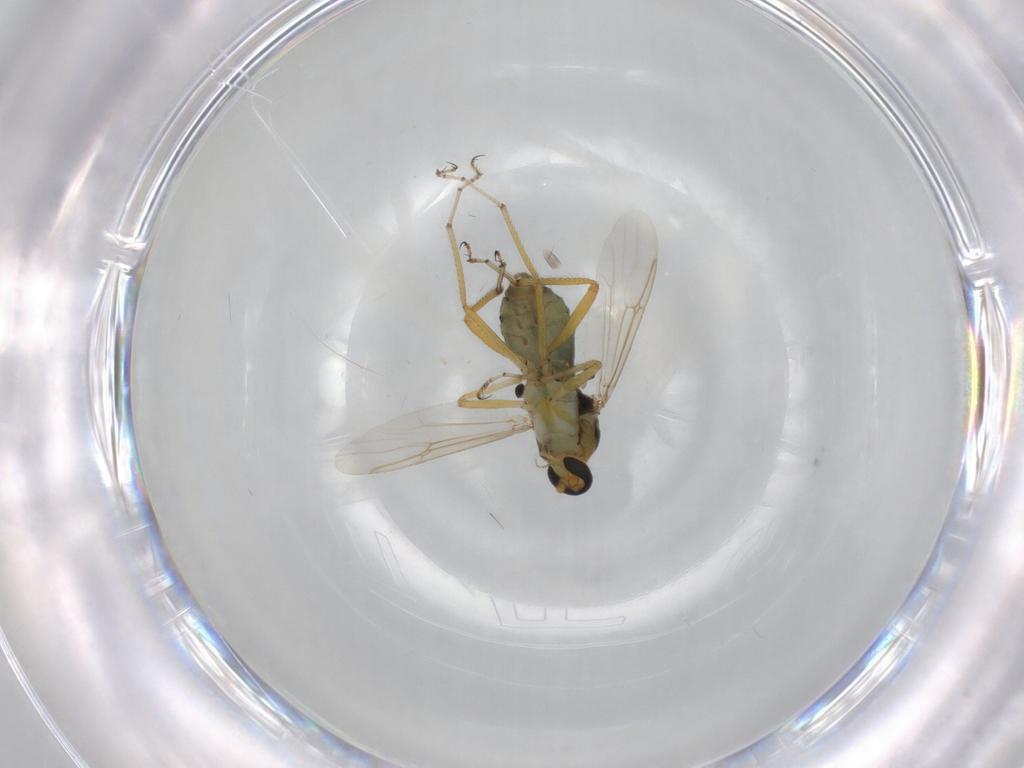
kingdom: Animalia
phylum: Arthropoda
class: Insecta
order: Diptera
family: Ceratopogonidae
